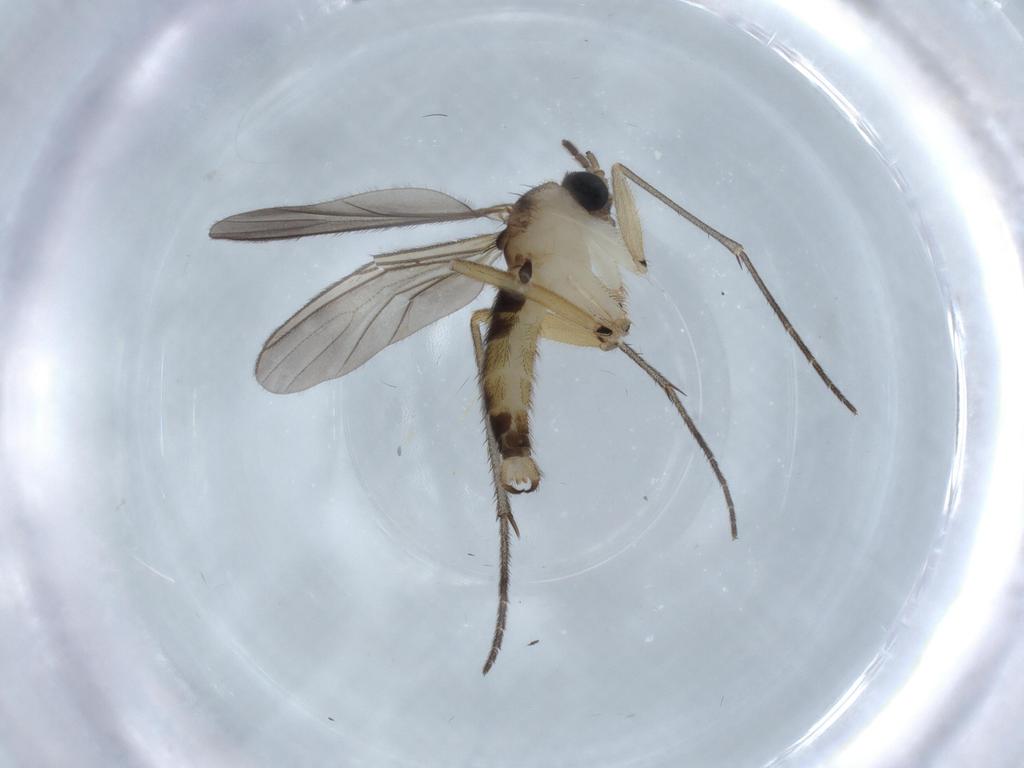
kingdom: Animalia
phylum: Arthropoda
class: Insecta
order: Diptera
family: Sciaridae
